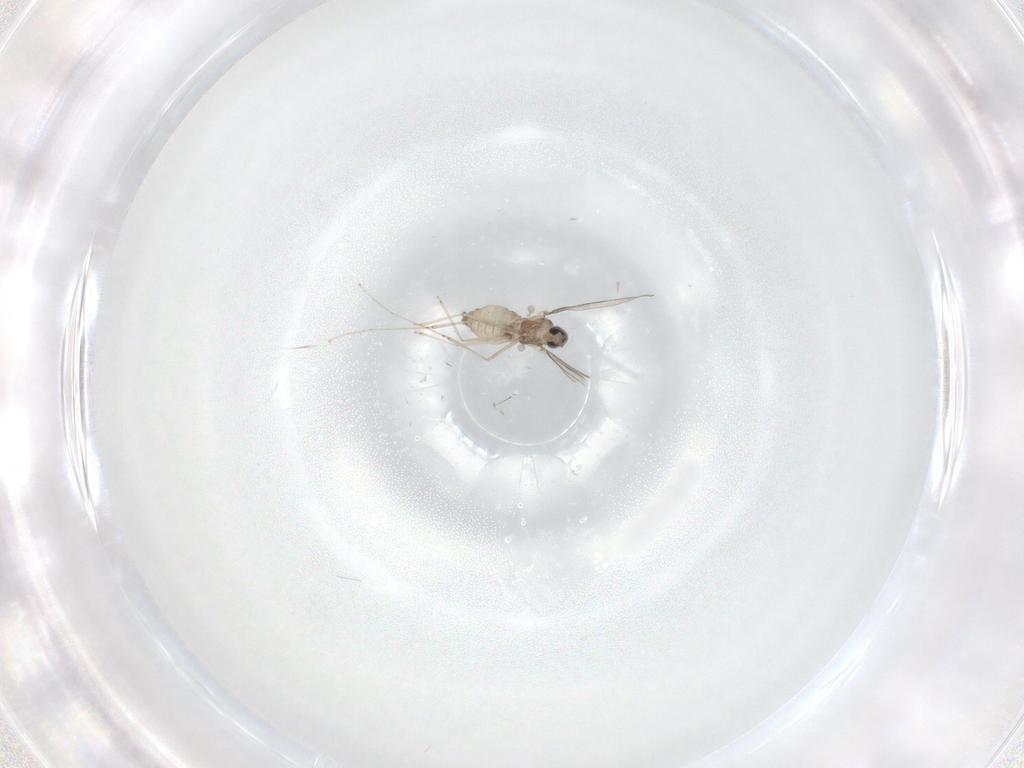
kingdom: Animalia
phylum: Arthropoda
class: Insecta
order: Diptera
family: Cecidomyiidae
